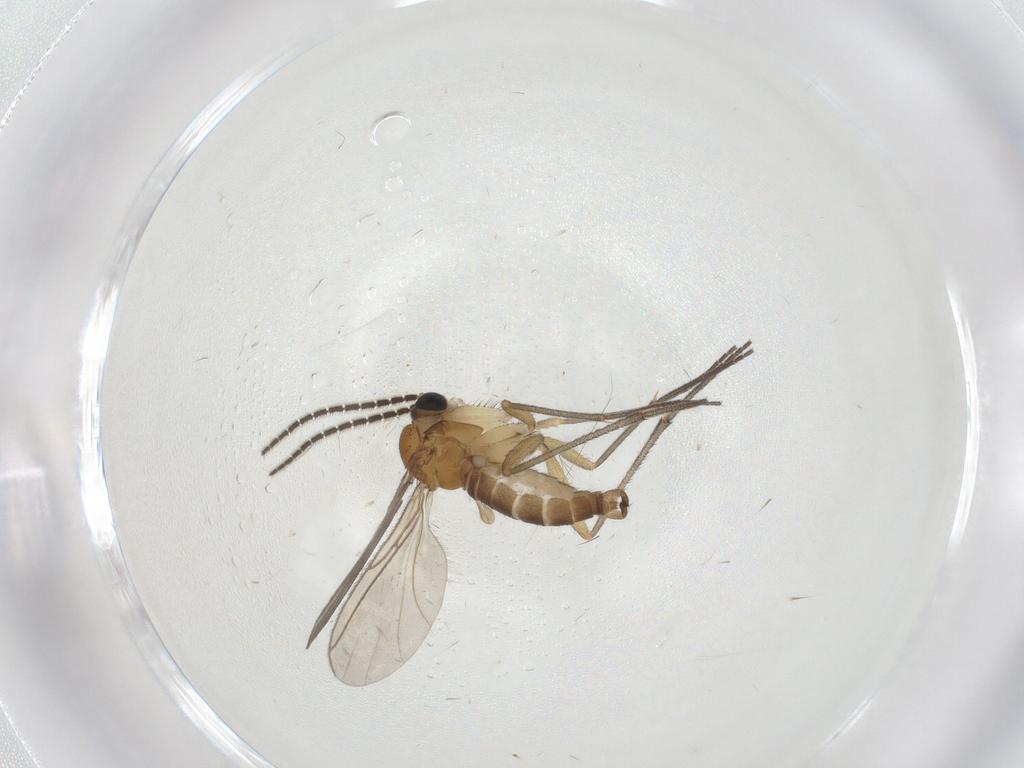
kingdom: Animalia
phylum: Arthropoda
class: Insecta
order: Diptera
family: Sciaridae
